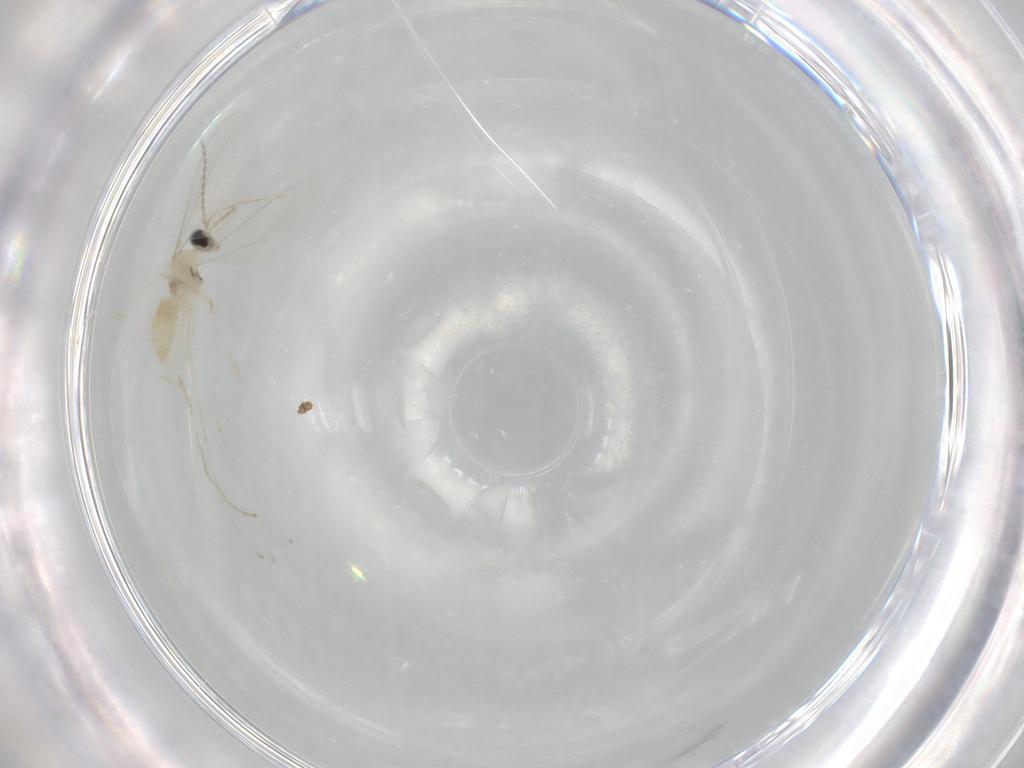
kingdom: Animalia
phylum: Arthropoda
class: Insecta
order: Diptera
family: Cecidomyiidae
